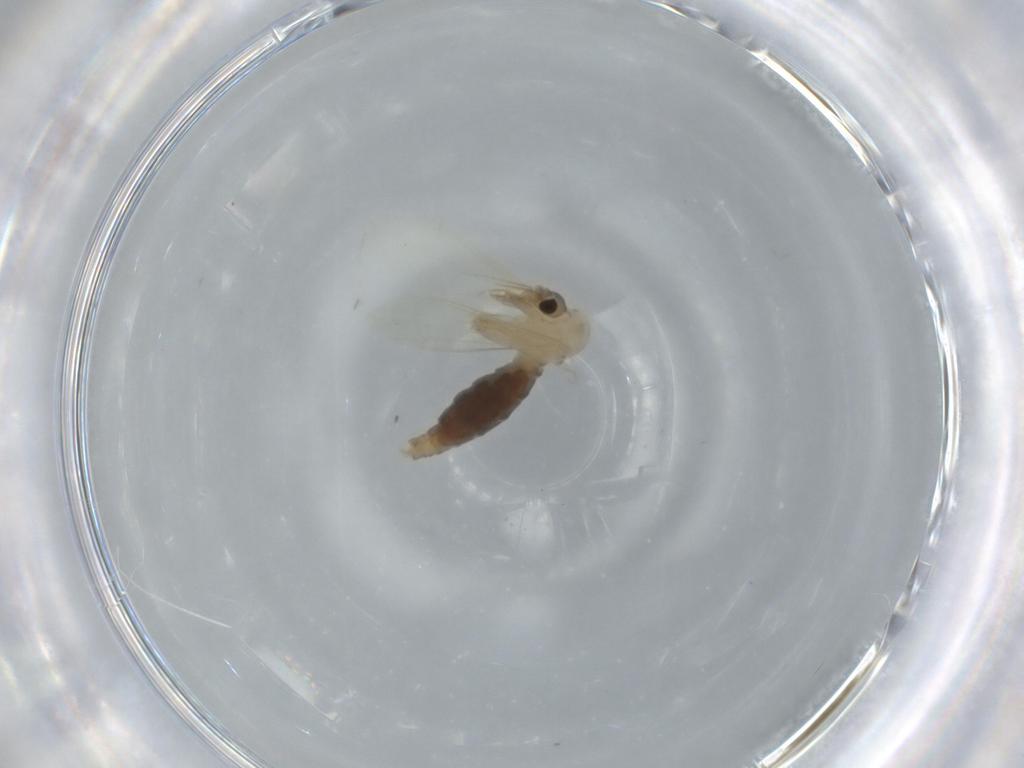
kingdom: Animalia
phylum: Arthropoda
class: Insecta
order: Diptera
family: Psychodidae
